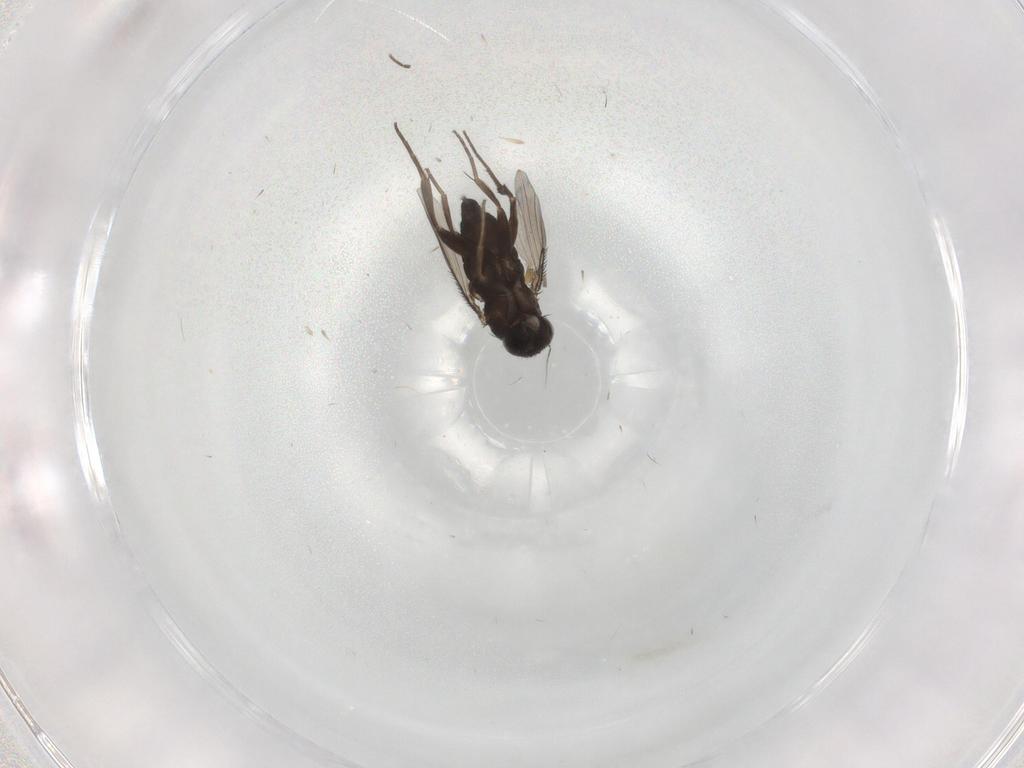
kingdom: Animalia
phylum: Arthropoda
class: Insecta
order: Diptera
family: Phoridae
